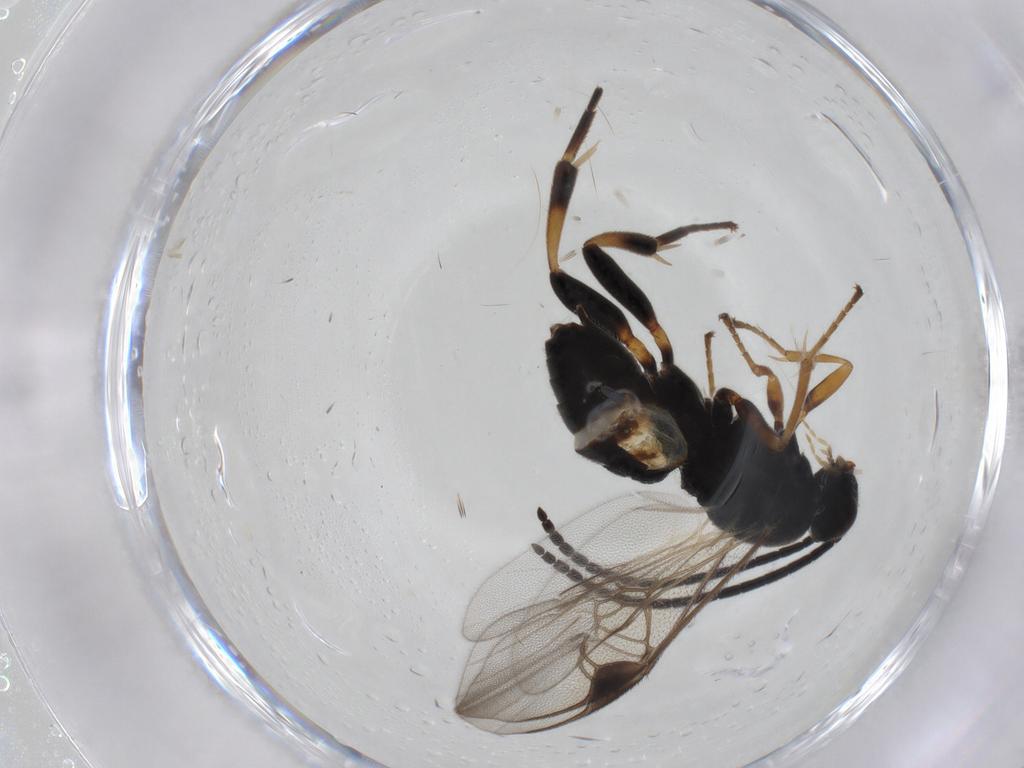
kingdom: Animalia
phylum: Arthropoda
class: Insecta
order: Hymenoptera
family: Braconidae
